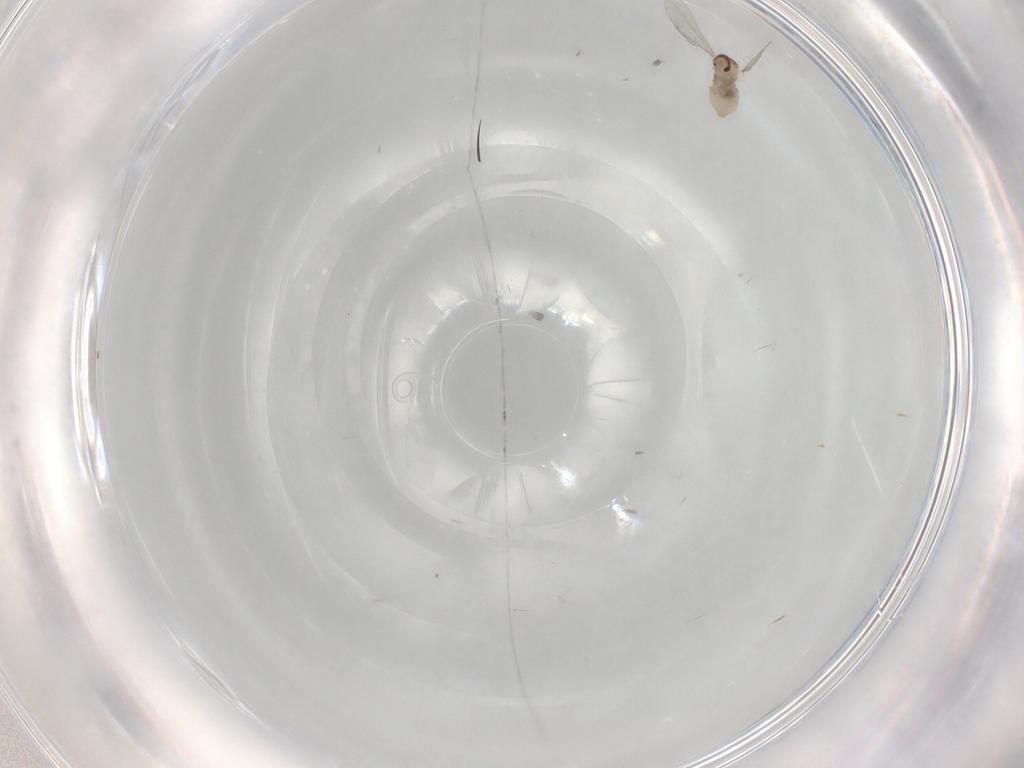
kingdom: Animalia
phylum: Arthropoda
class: Insecta
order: Diptera
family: Cecidomyiidae
